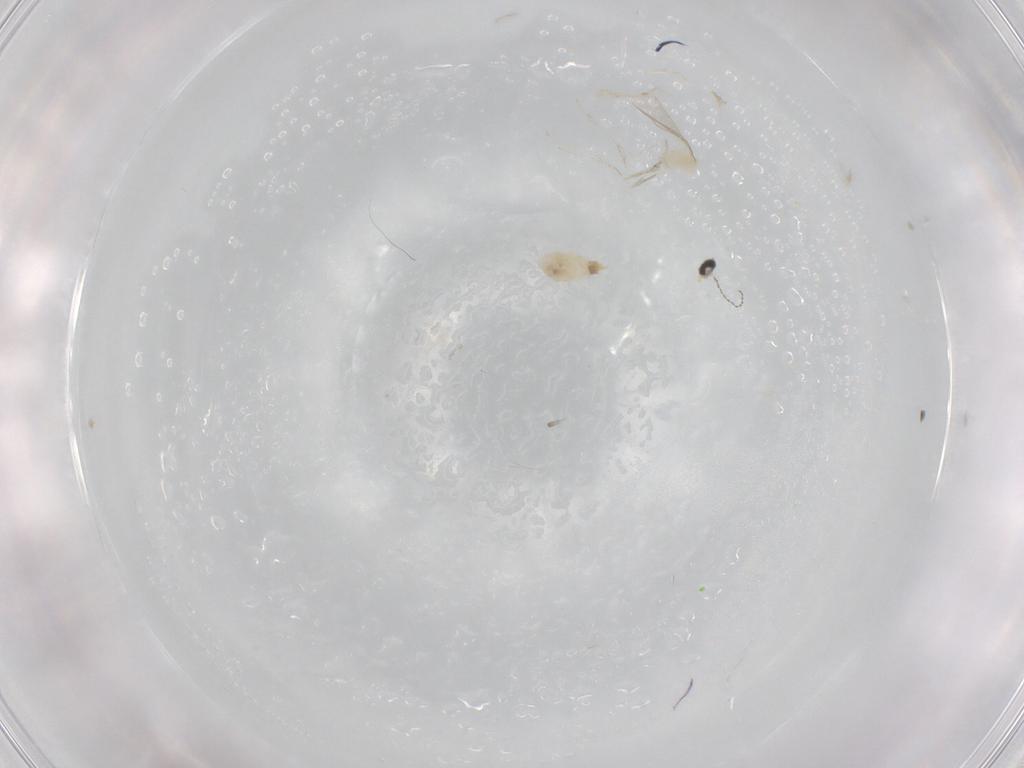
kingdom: Animalia
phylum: Arthropoda
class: Insecta
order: Diptera
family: Cecidomyiidae
